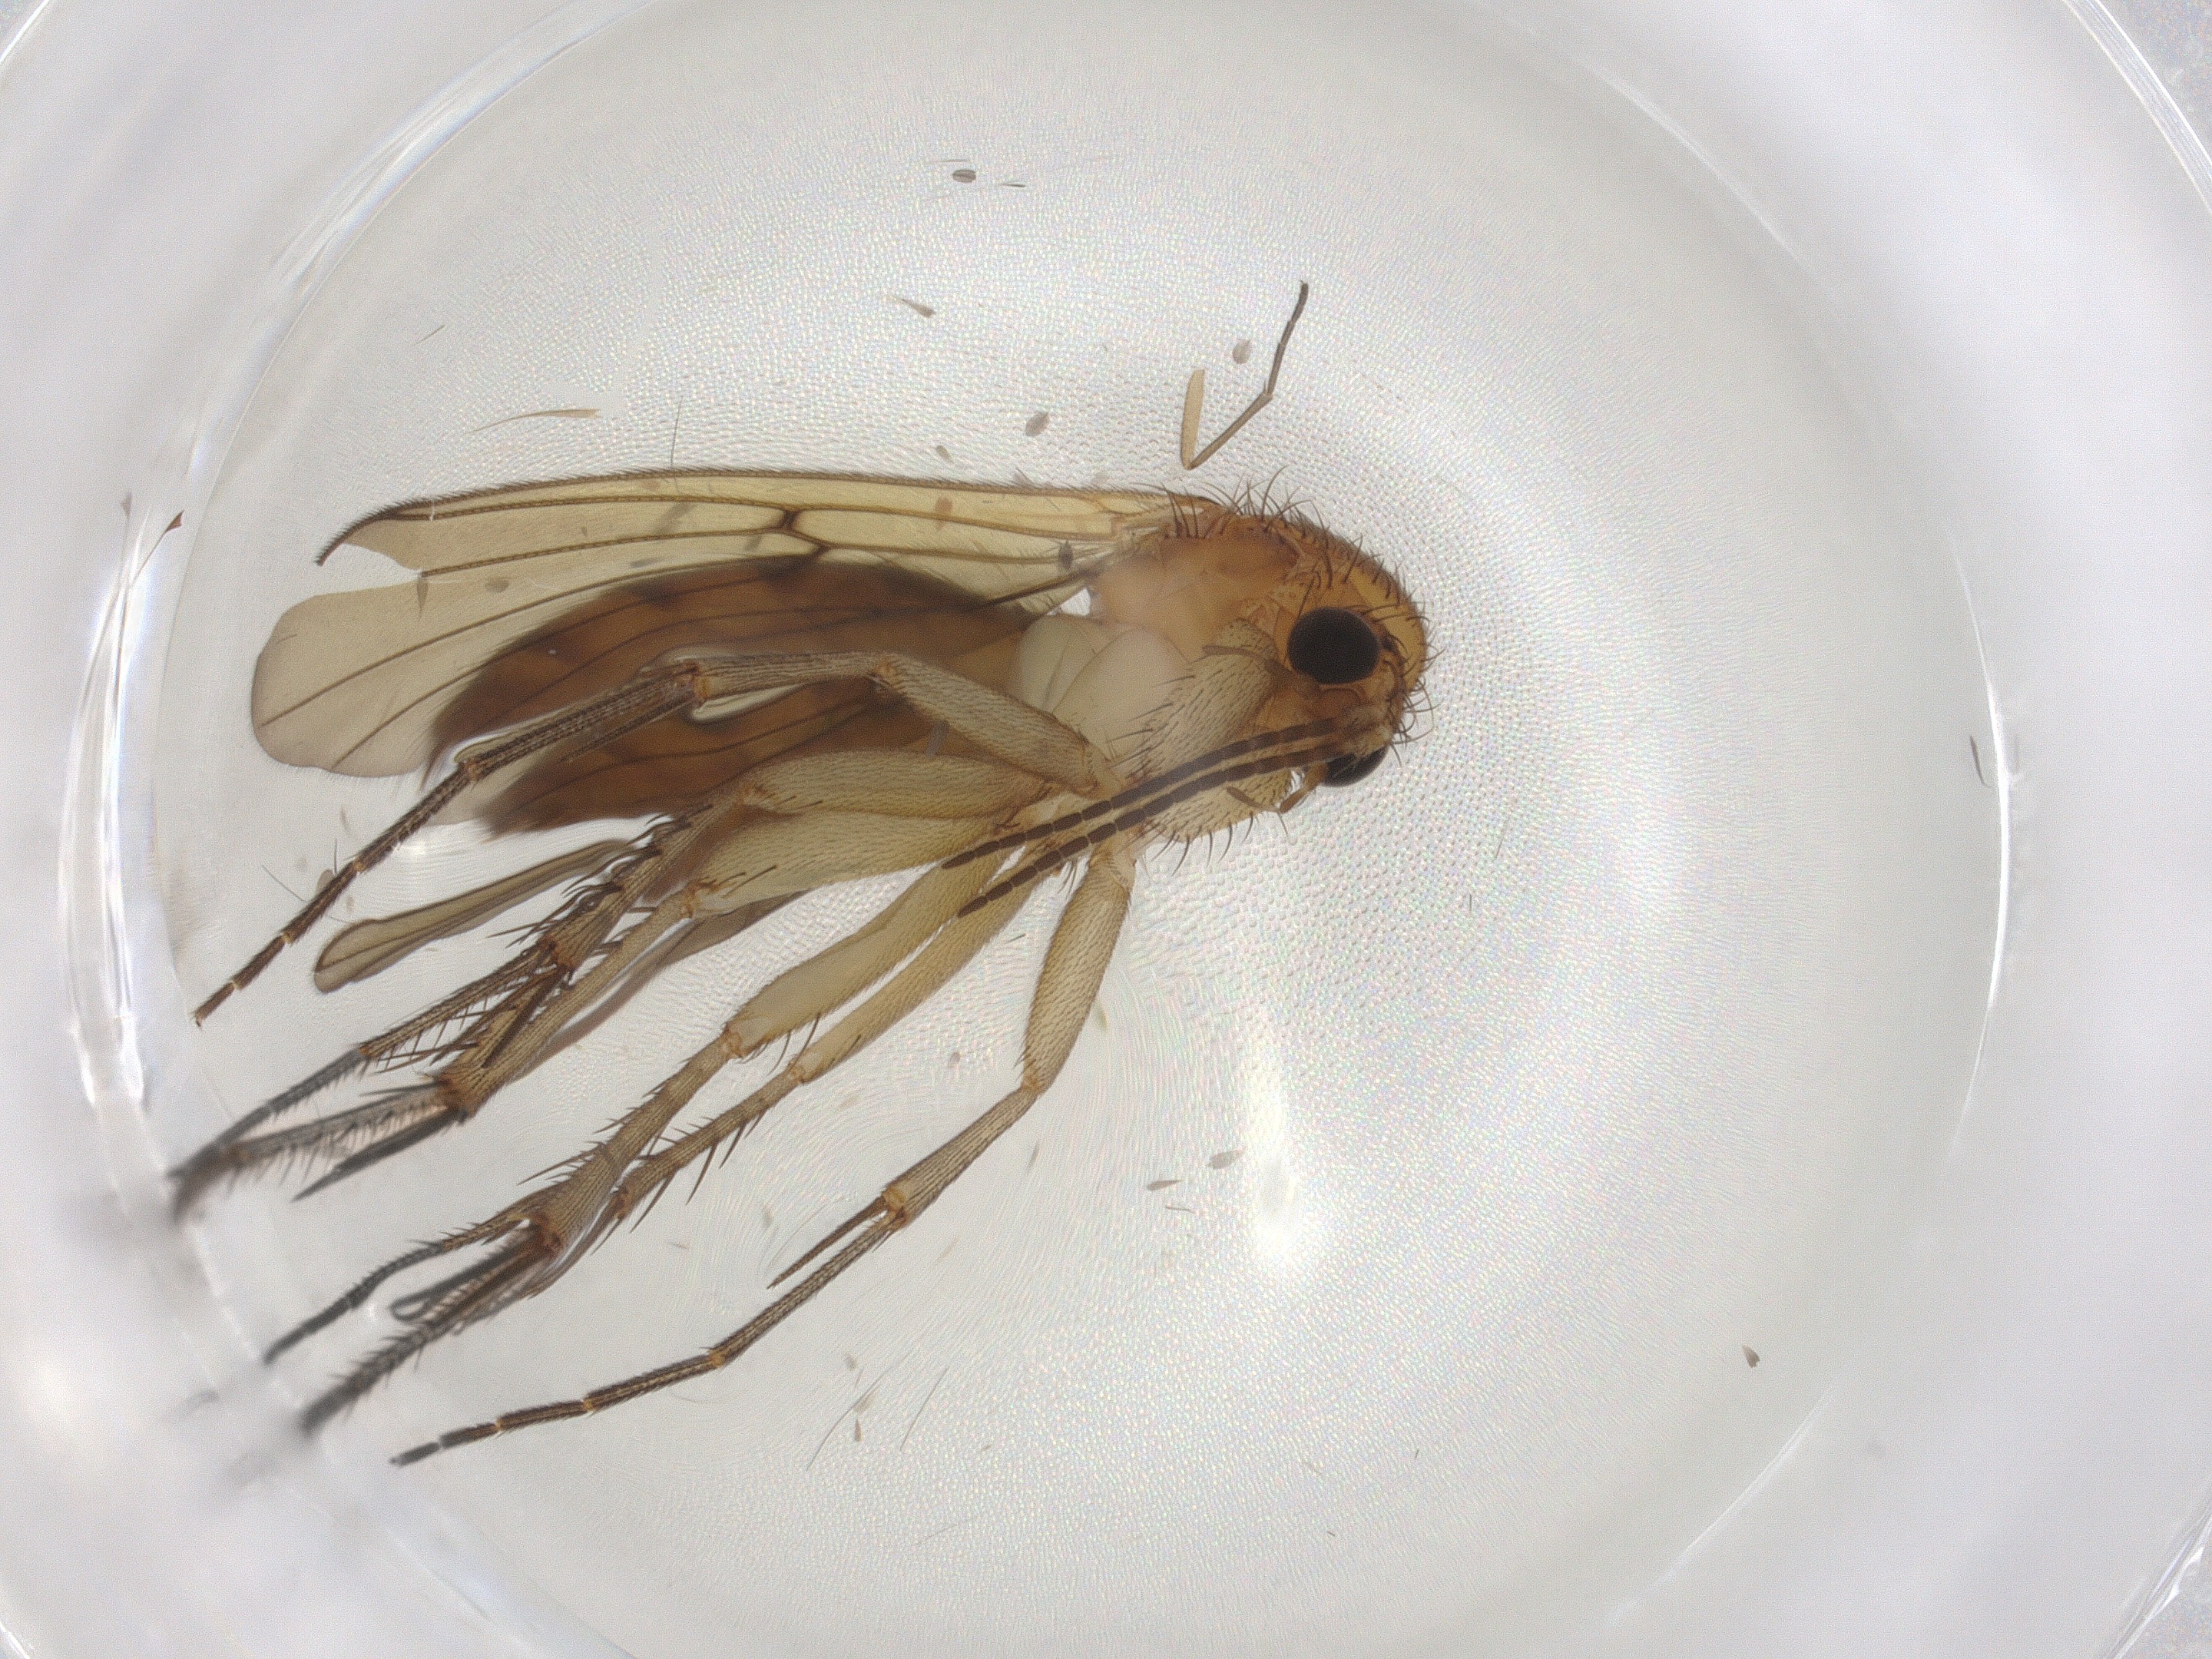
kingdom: Animalia
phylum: Arthropoda
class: Insecta
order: Diptera
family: Mycetophilidae
